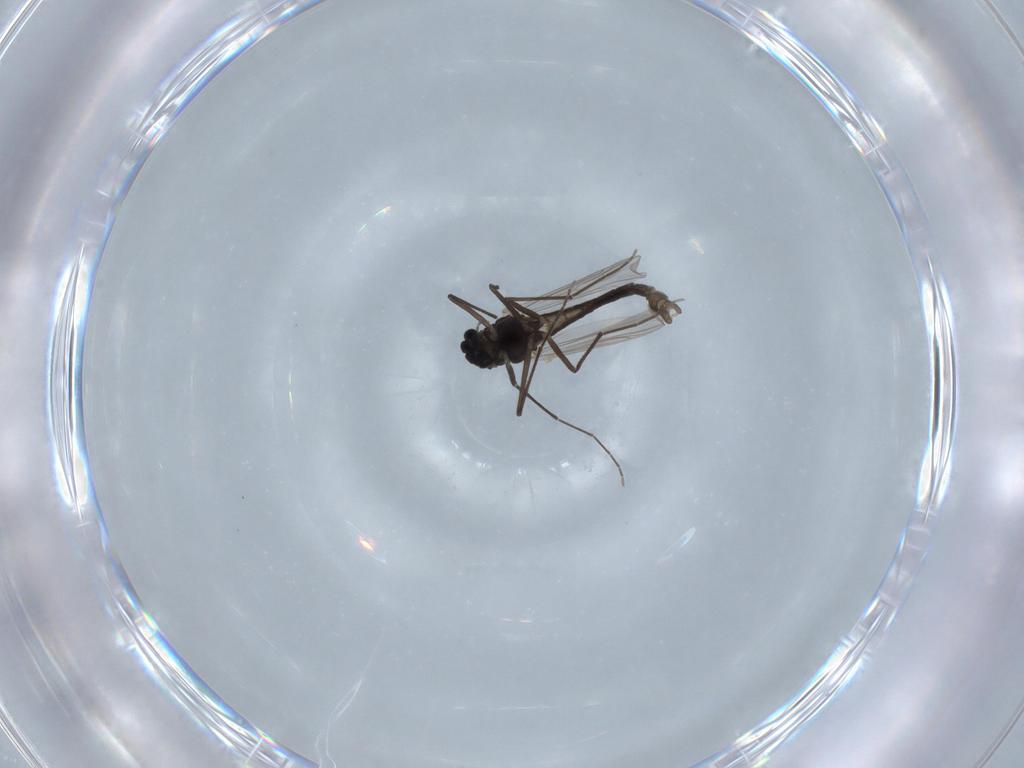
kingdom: Animalia
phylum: Arthropoda
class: Insecta
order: Diptera
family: Chironomidae
